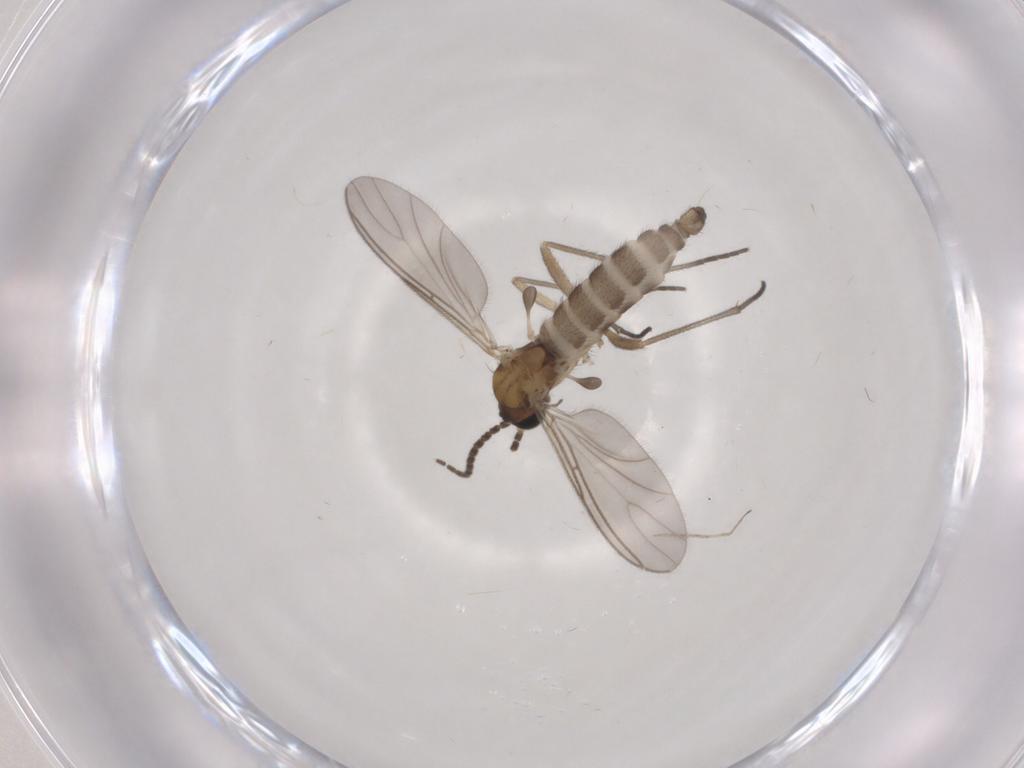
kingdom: Animalia
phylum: Arthropoda
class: Insecta
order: Diptera
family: Sciaridae
